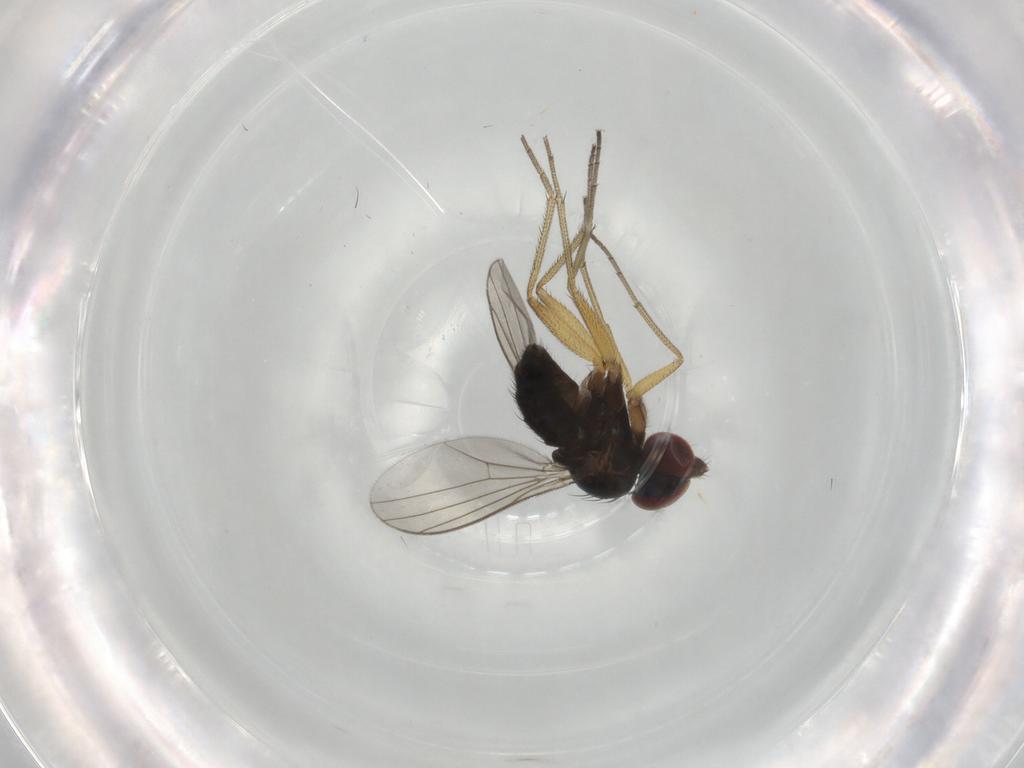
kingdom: Animalia
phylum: Arthropoda
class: Insecta
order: Diptera
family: Dolichopodidae
